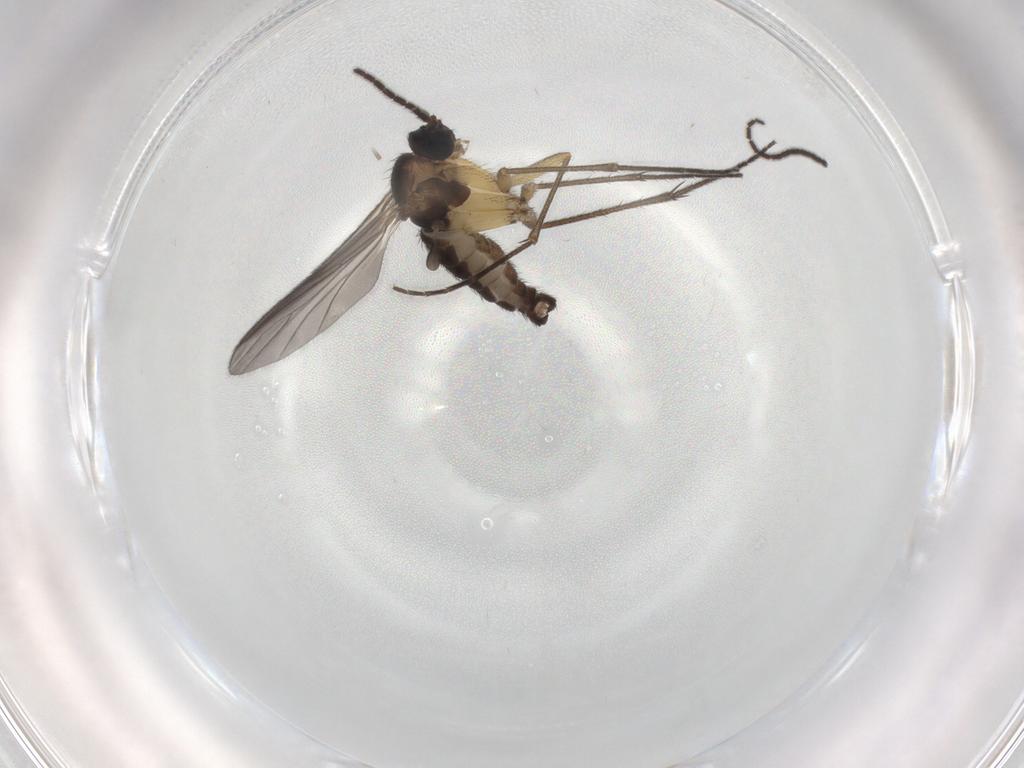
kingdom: Animalia
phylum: Arthropoda
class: Insecta
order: Diptera
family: Sciaridae
